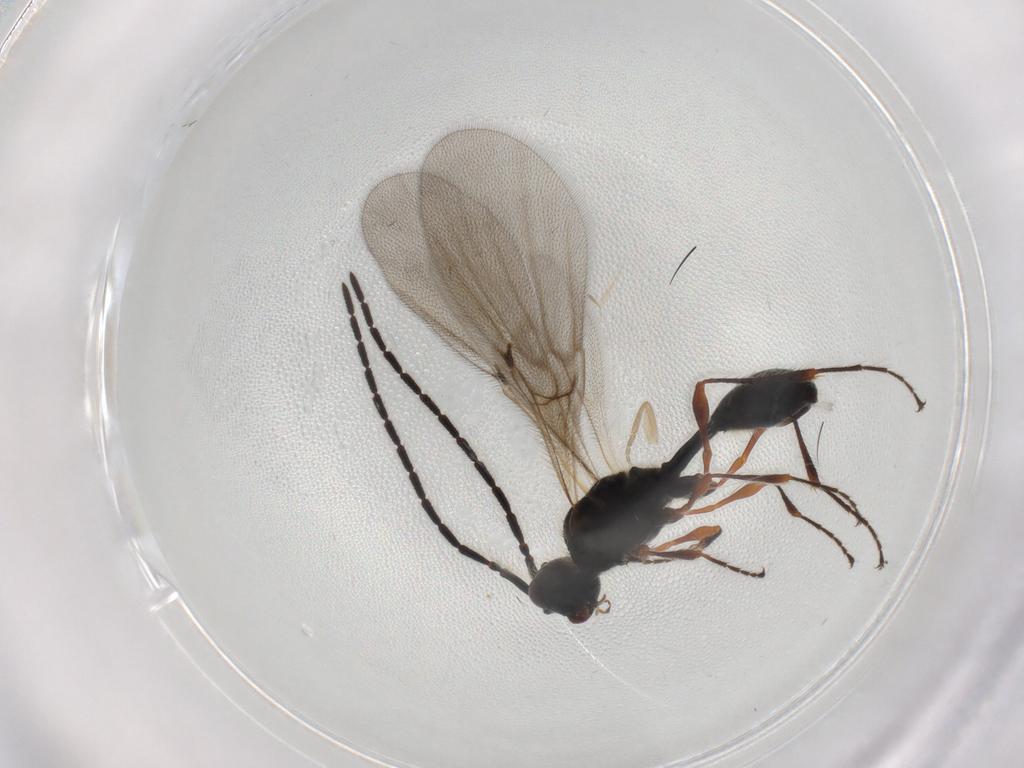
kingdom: Animalia
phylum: Arthropoda
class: Insecta
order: Hymenoptera
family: Diapriidae
